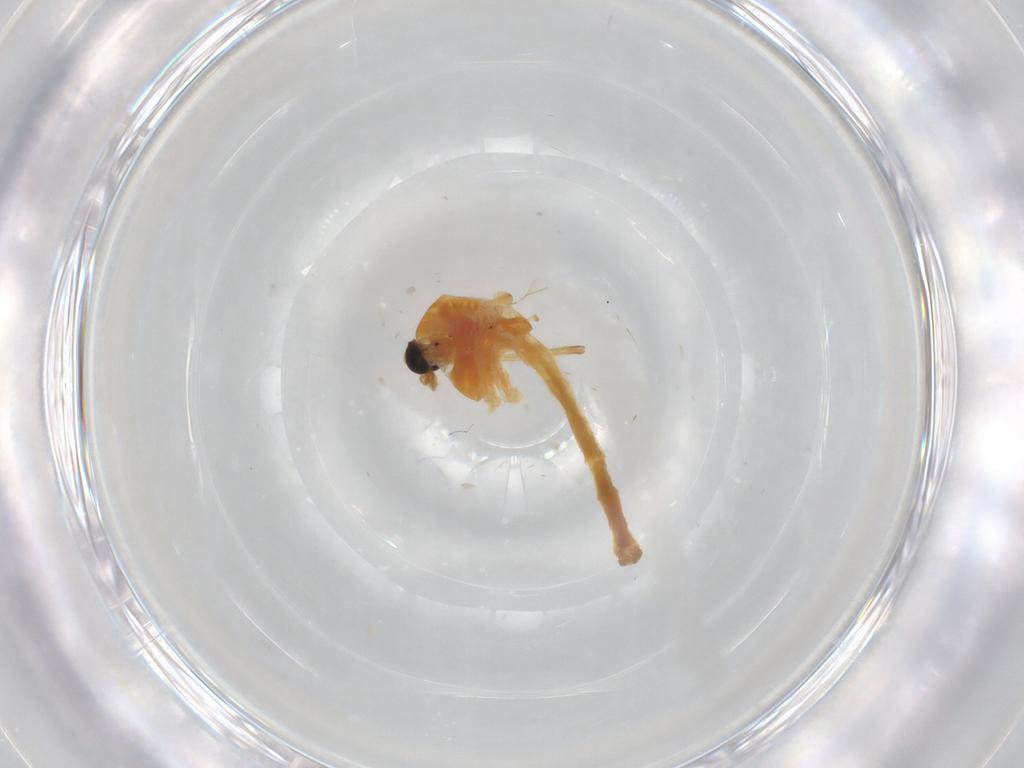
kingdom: Animalia
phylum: Arthropoda
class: Insecta
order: Diptera
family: Chironomidae
